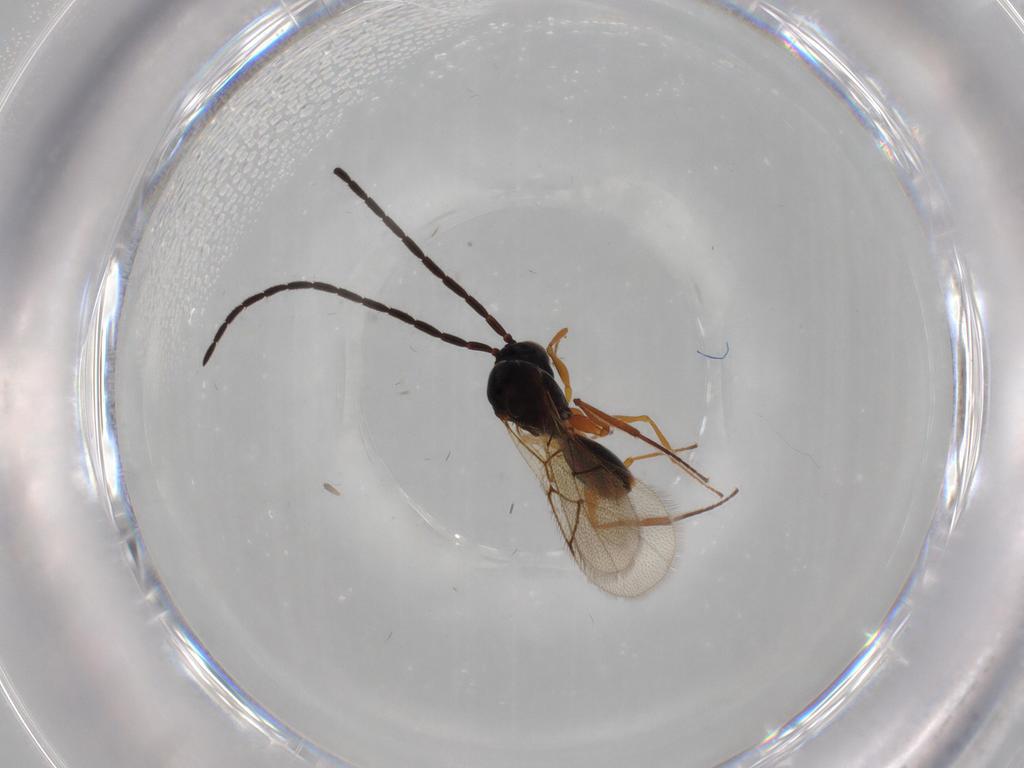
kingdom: Animalia
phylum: Arthropoda
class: Insecta
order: Hymenoptera
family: Figitidae
